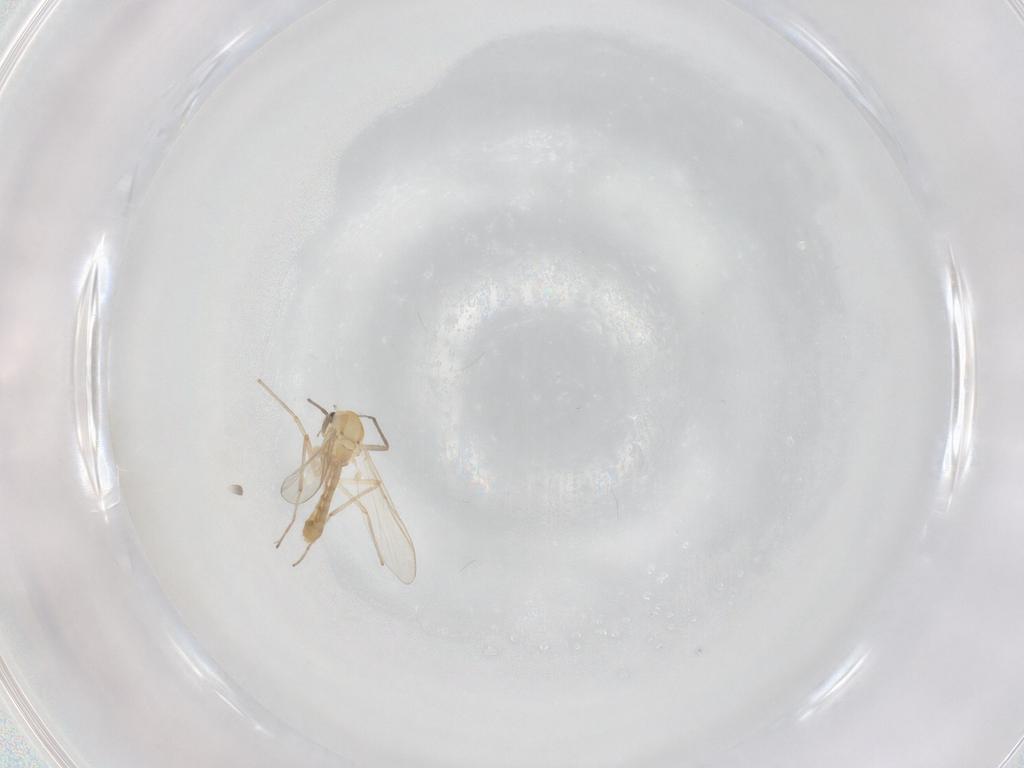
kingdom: Animalia
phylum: Arthropoda
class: Insecta
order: Diptera
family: Chironomidae
